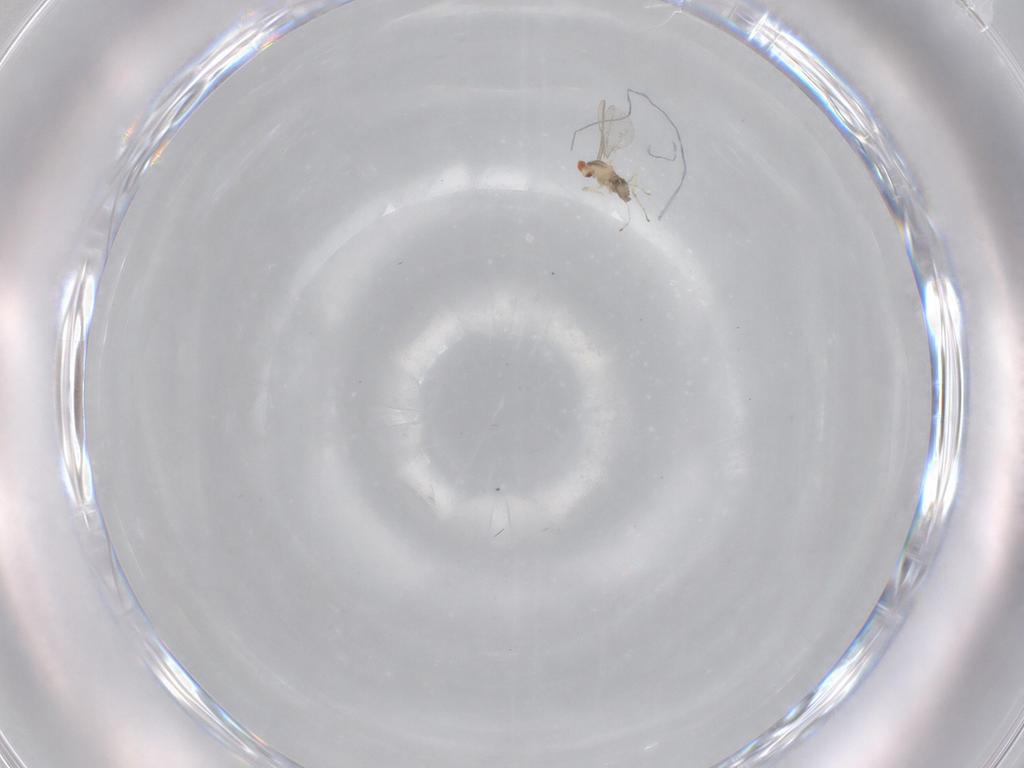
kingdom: Animalia
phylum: Arthropoda
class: Insecta
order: Diptera
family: Cecidomyiidae
